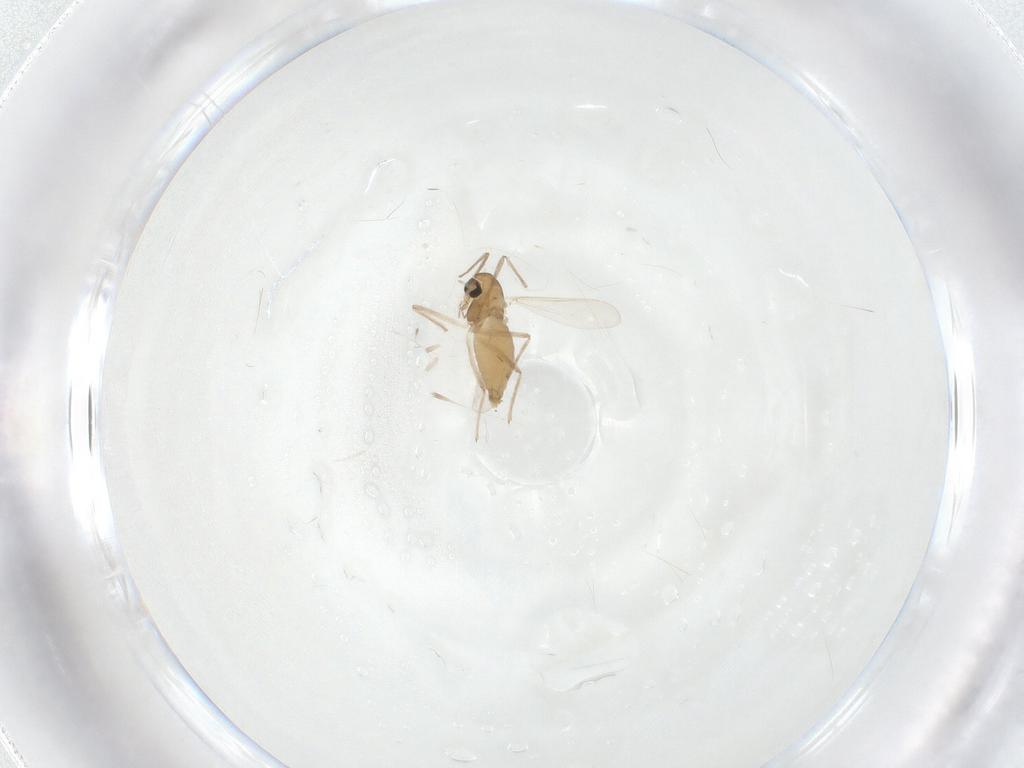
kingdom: Animalia
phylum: Arthropoda
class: Insecta
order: Diptera
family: Chironomidae
